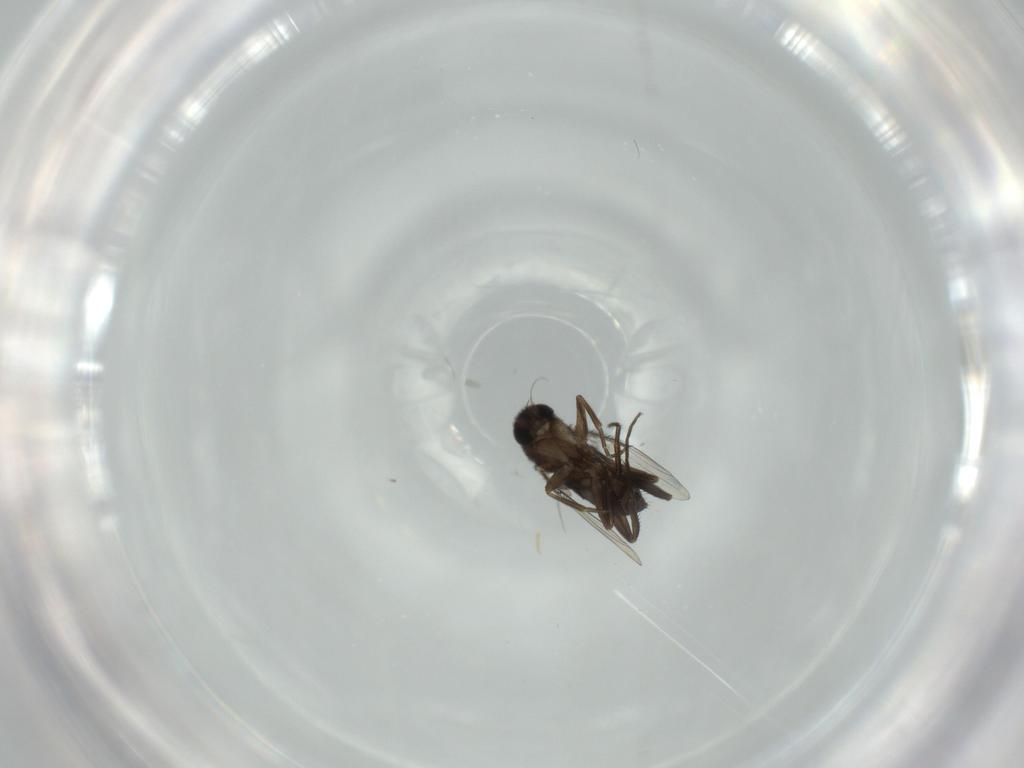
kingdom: Animalia
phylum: Arthropoda
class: Insecta
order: Diptera
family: Phoridae
